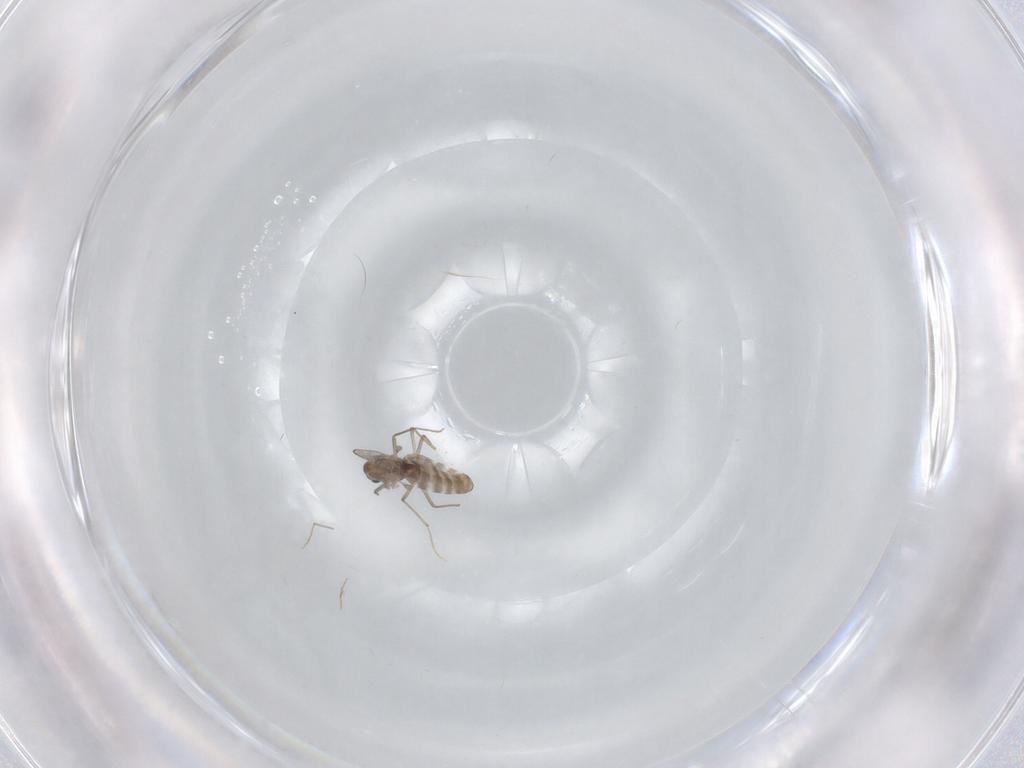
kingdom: Animalia
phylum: Arthropoda
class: Insecta
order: Diptera
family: Chironomidae
